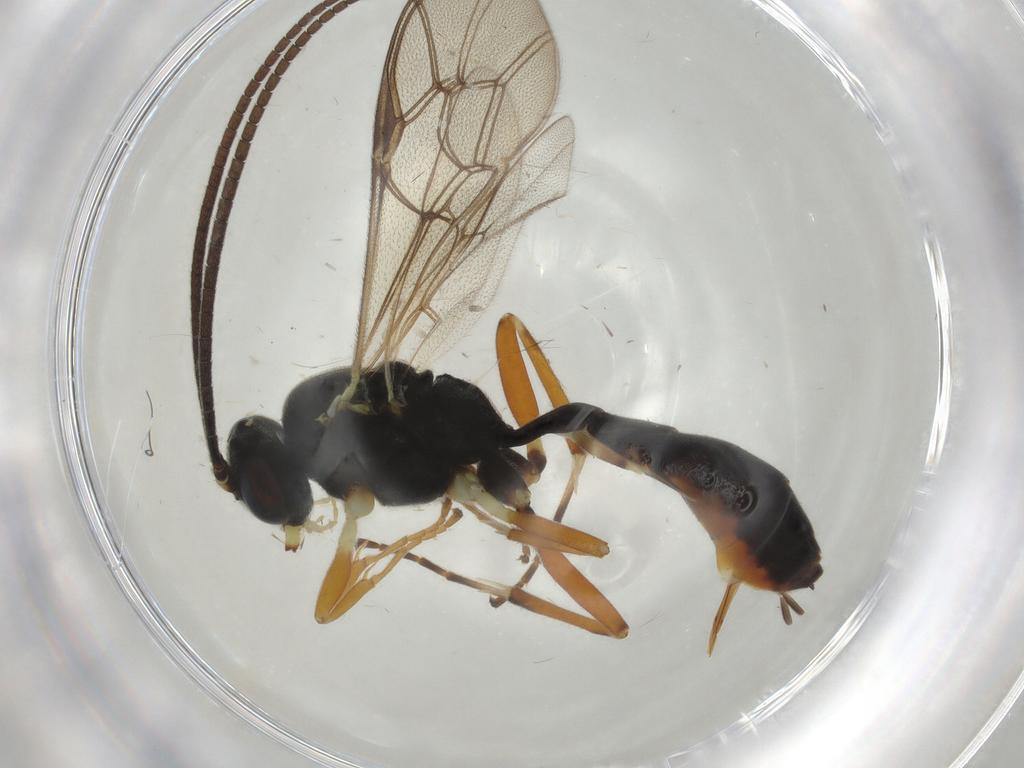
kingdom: Animalia
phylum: Arthropoda
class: Insecta
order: Hymenoptera
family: Ichneumonidae
